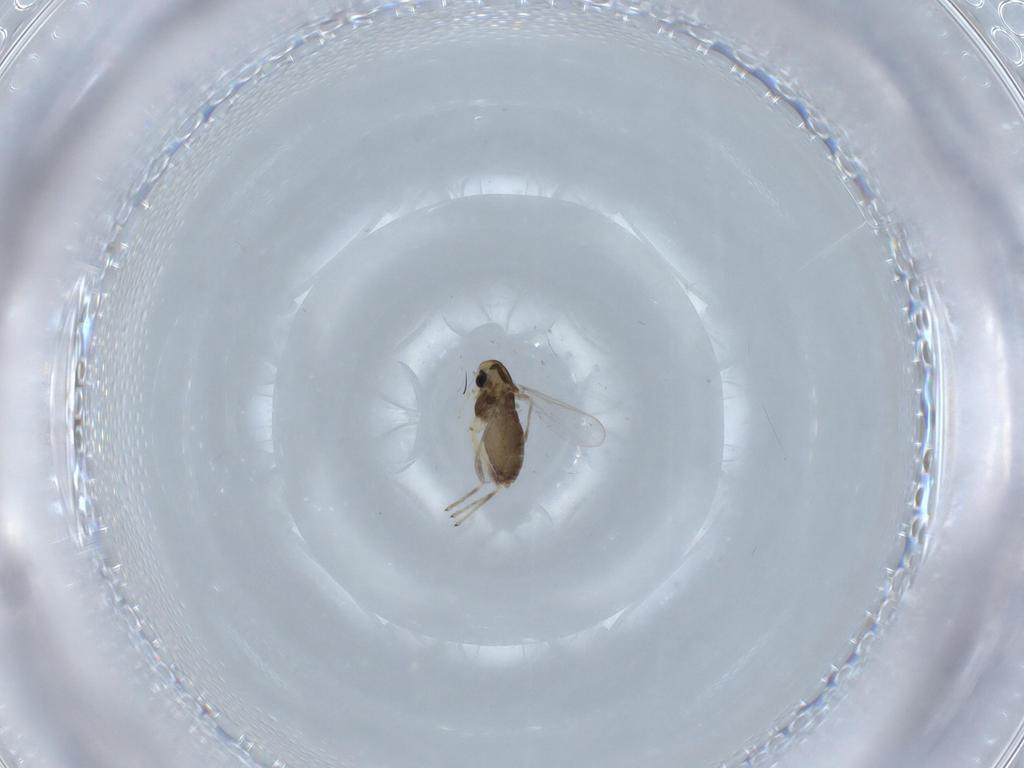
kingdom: Animalia
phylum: Arthropoda
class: Insecta
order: Diptera
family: Chironomidae
